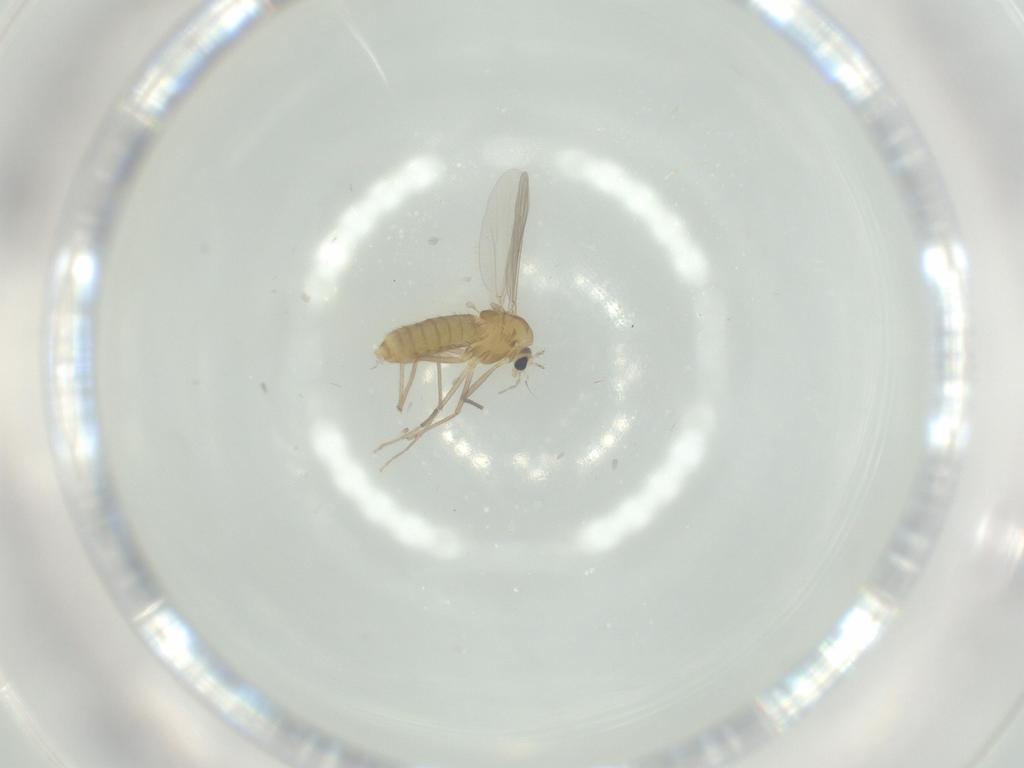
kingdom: Animalia
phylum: Arthropoda
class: Insecta
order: Diptera
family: Chironomidae
